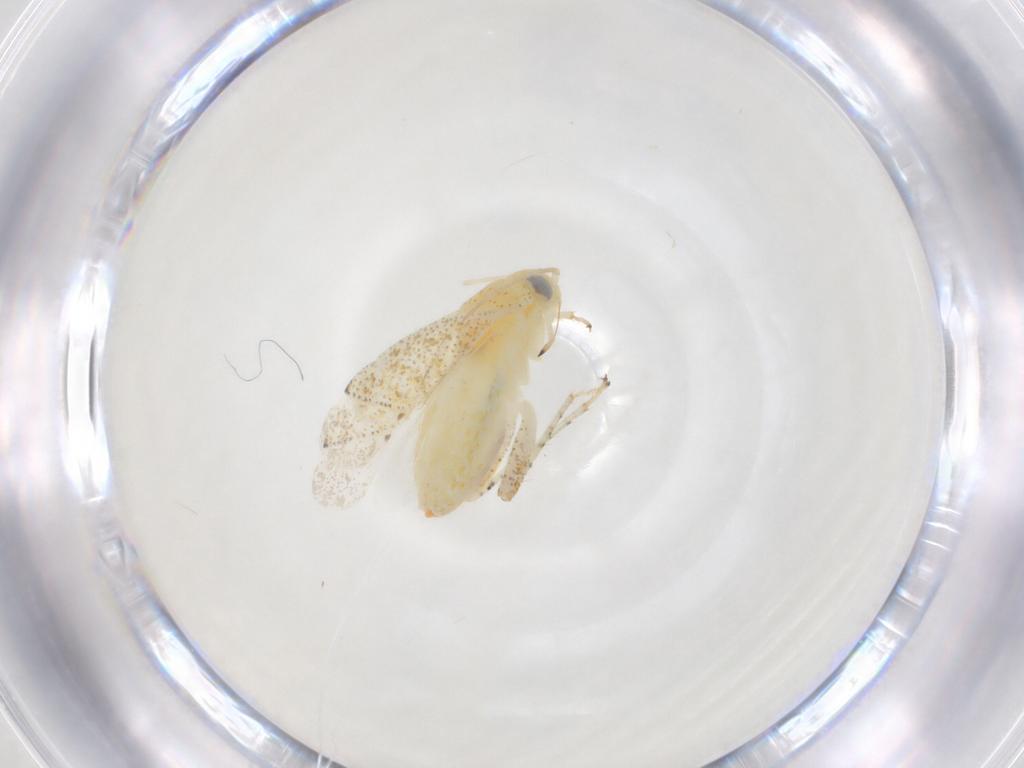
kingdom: Animalia
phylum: Arthropoda
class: Insecta
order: Hemiptera
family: Miridae
